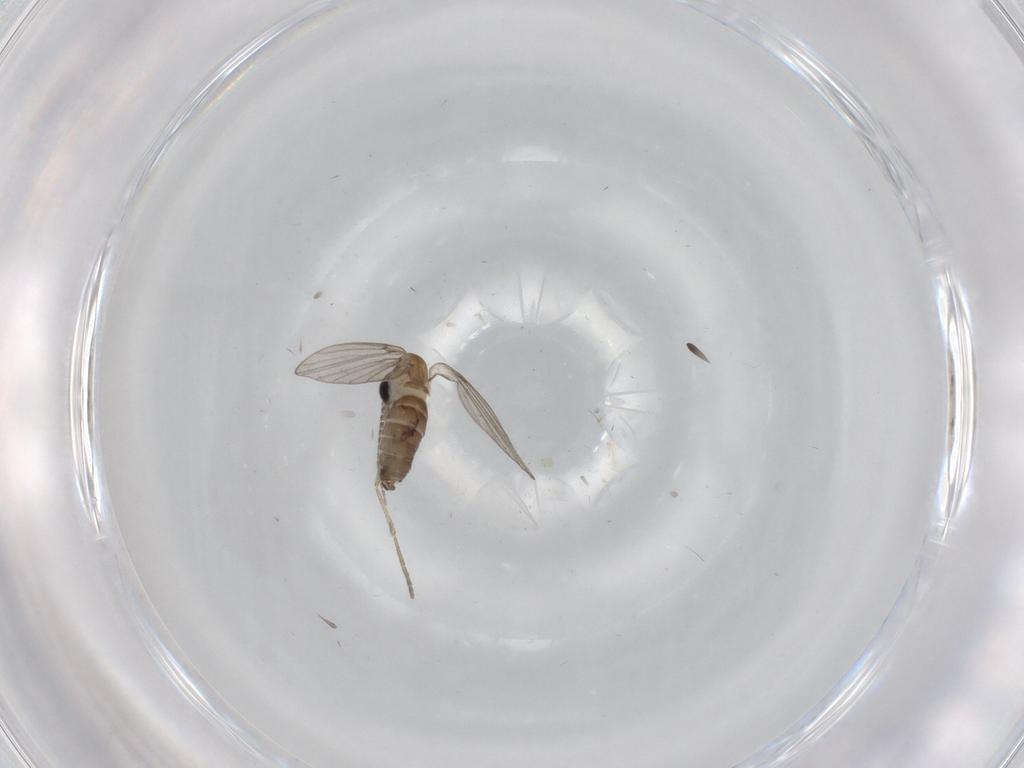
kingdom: Animalia
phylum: Arthropoda
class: Insecta
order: Diptera
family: Psychodidae
